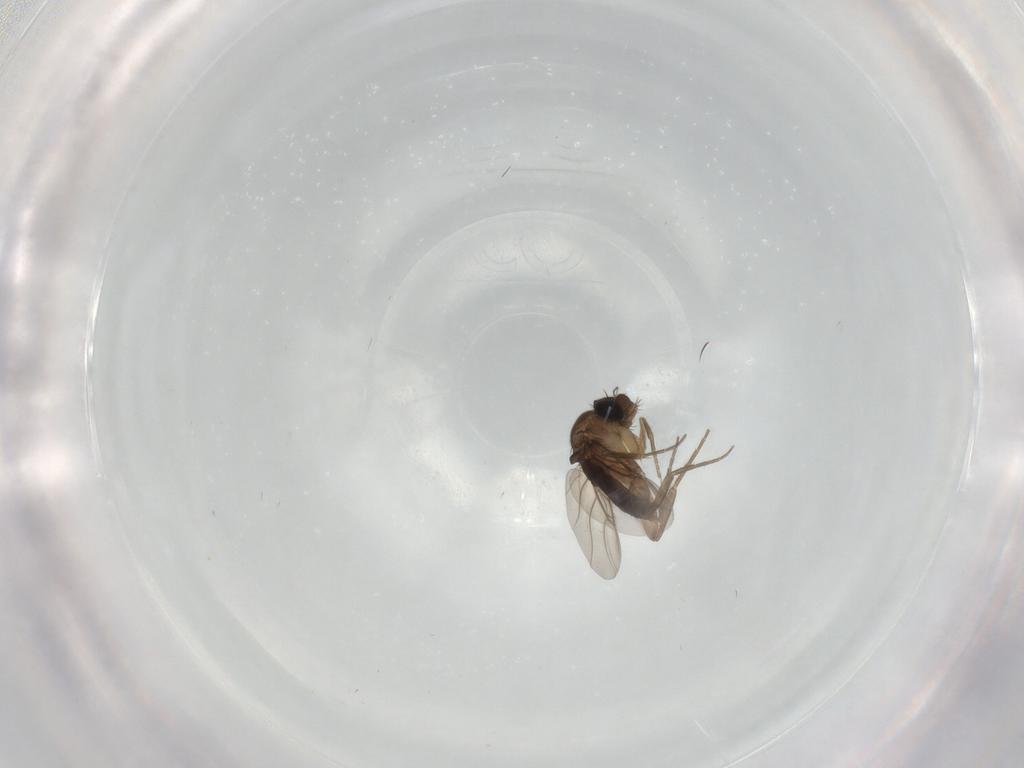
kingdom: Animalia
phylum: Arthropoda
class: Insecta
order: Diptera
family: Phoridae
